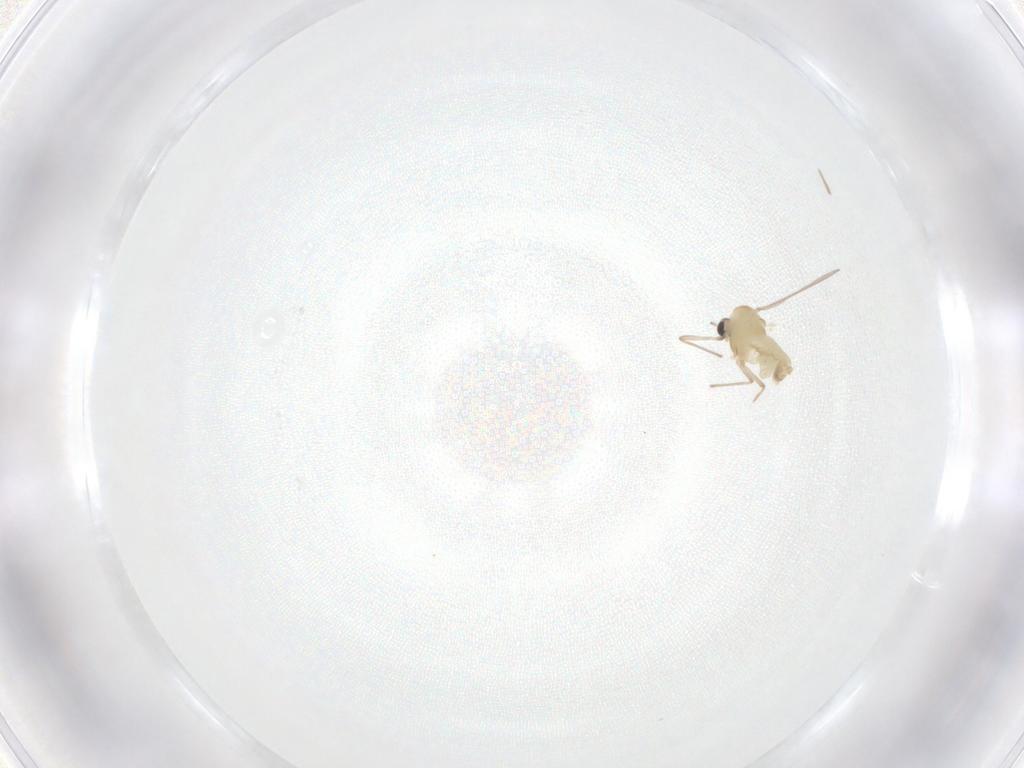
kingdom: Animalia
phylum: Arthropoda
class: Insecta
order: Diptera
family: Chironomidae
